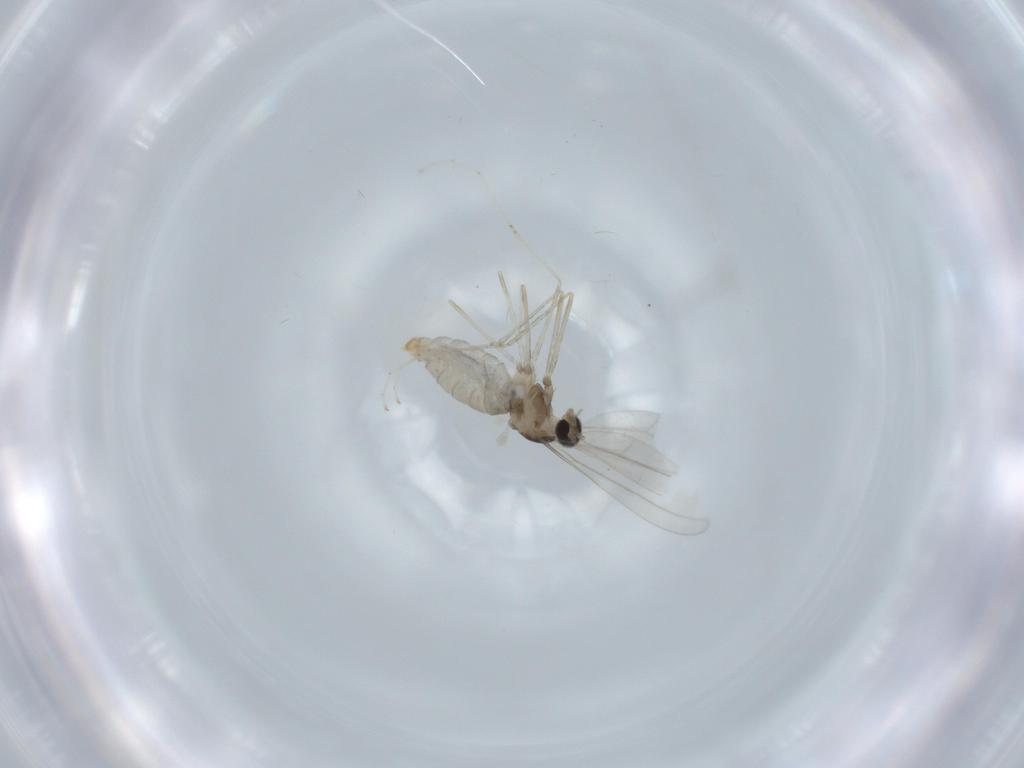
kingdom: Animalia
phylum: Arthropoda
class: Insecta
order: Diptera
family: Cecidomyiidae
